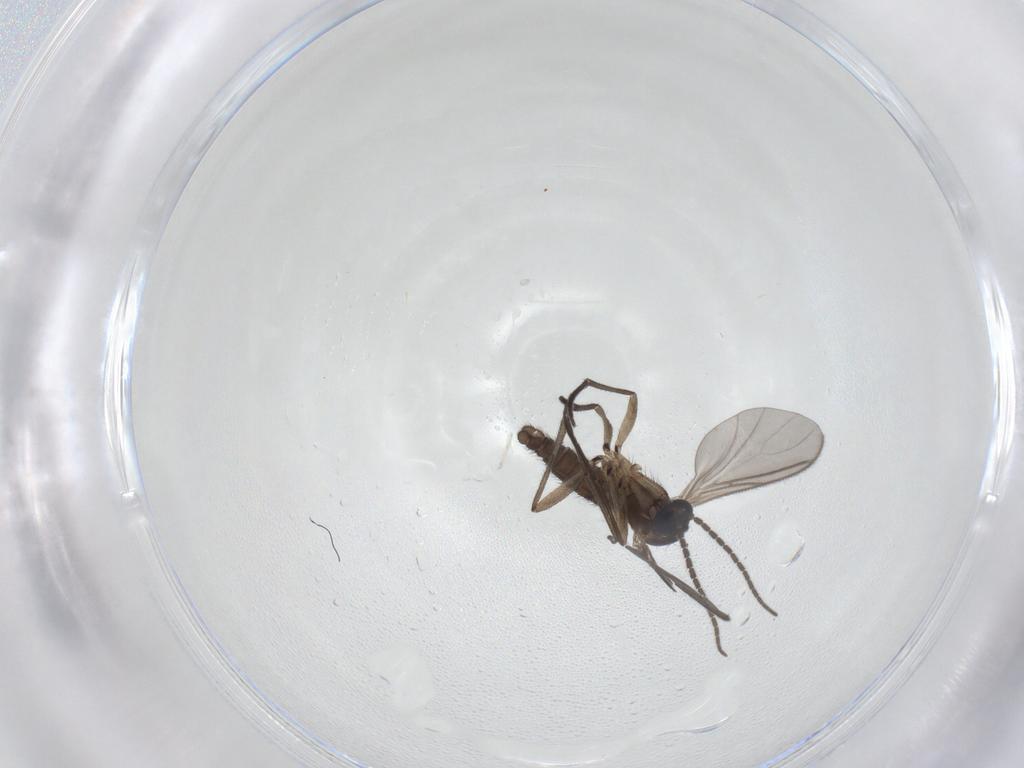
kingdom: Animalia
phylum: Arthropoda
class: Insecta
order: Diptera
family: Sciaridae
